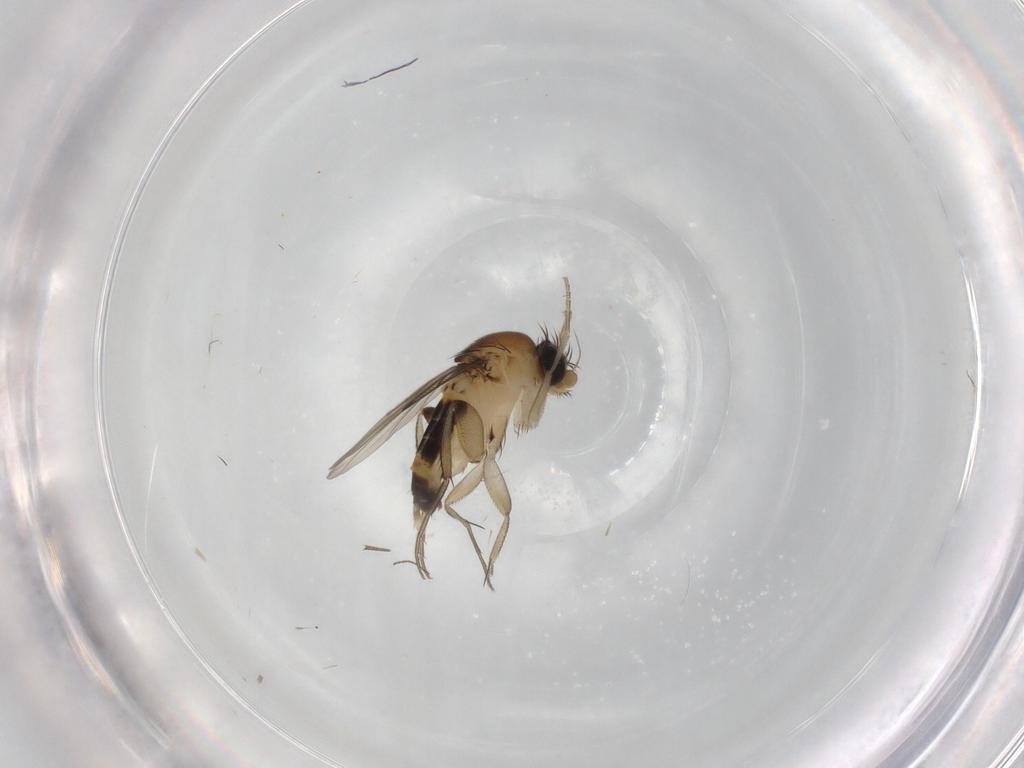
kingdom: Animalia
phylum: Arthropoda
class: Insecta
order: Diptera
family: Phoridae
